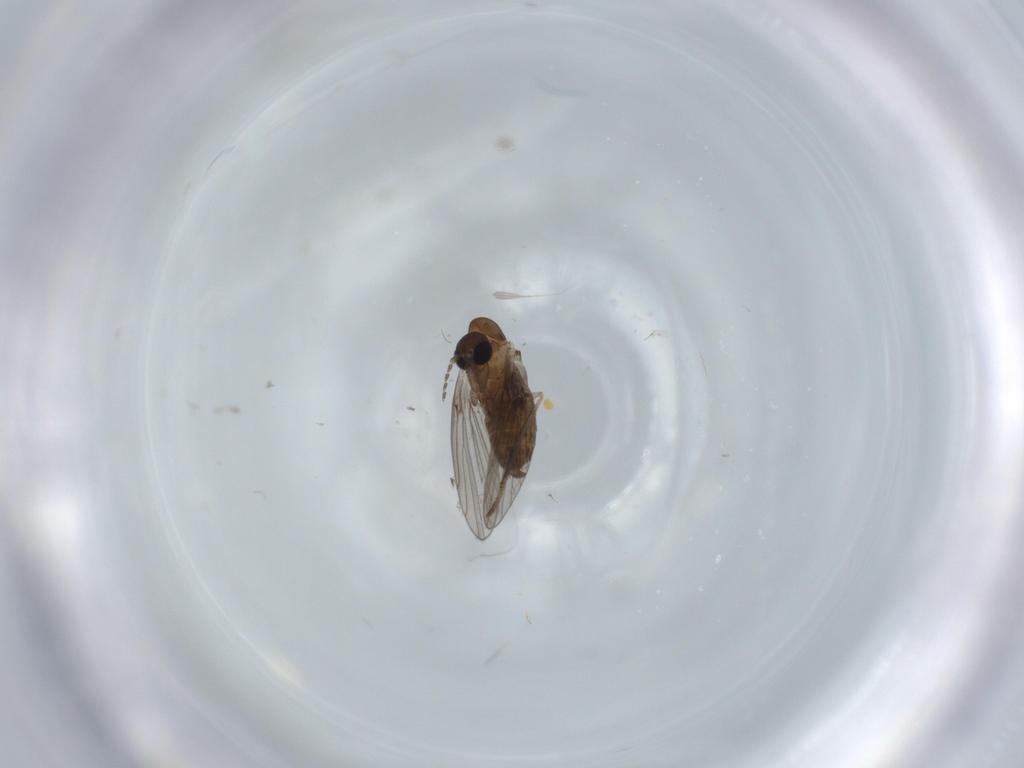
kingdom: Animalia
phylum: Arthropoda
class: Insecta
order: Diptera
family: Psychodidae
